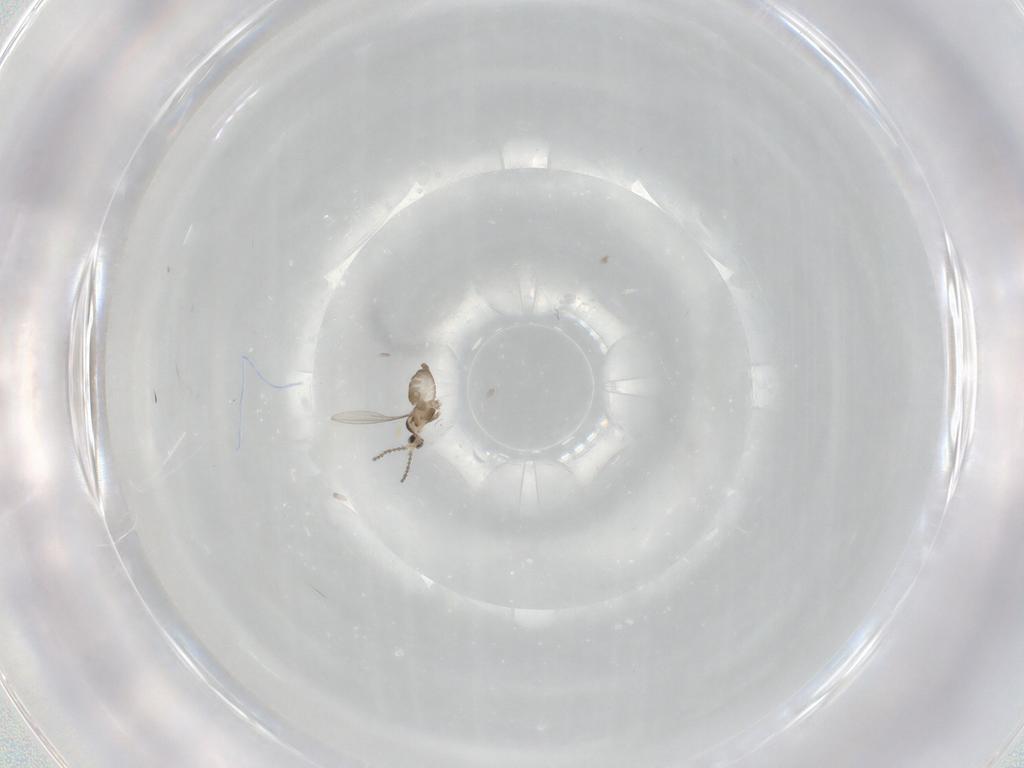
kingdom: Animalia
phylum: Arthropoda
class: Insecta
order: Diptera
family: Cecidomyiidae
